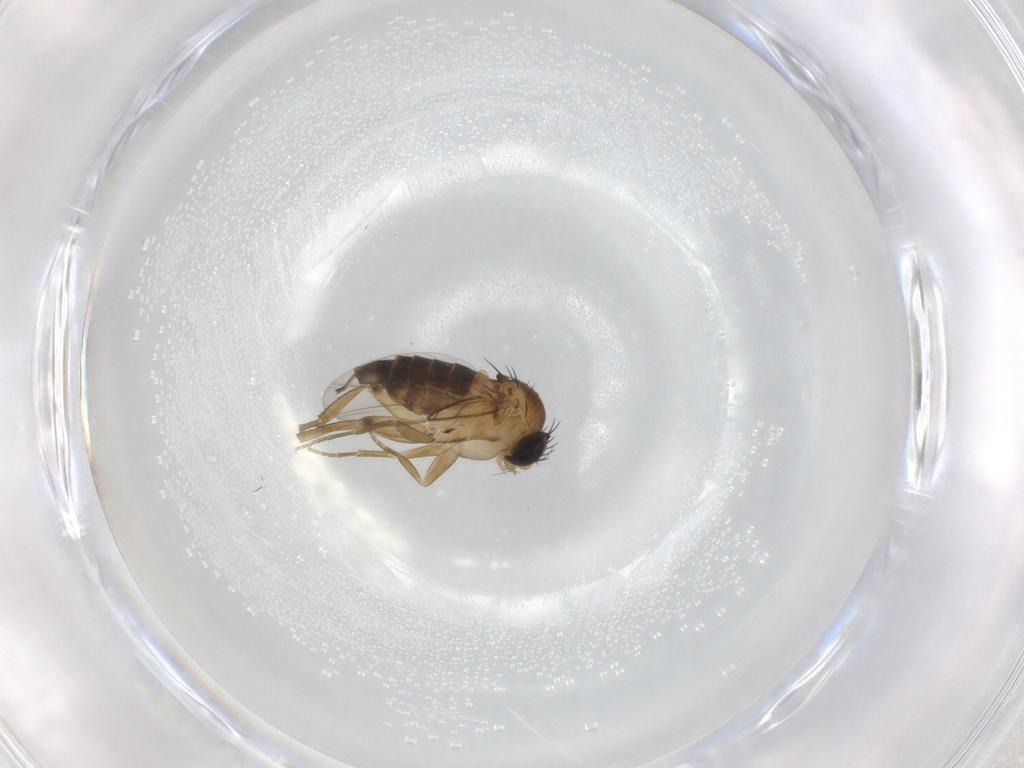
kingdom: Animalia
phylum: Arthropoda
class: Insecta
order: Diptera
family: Phoridae
